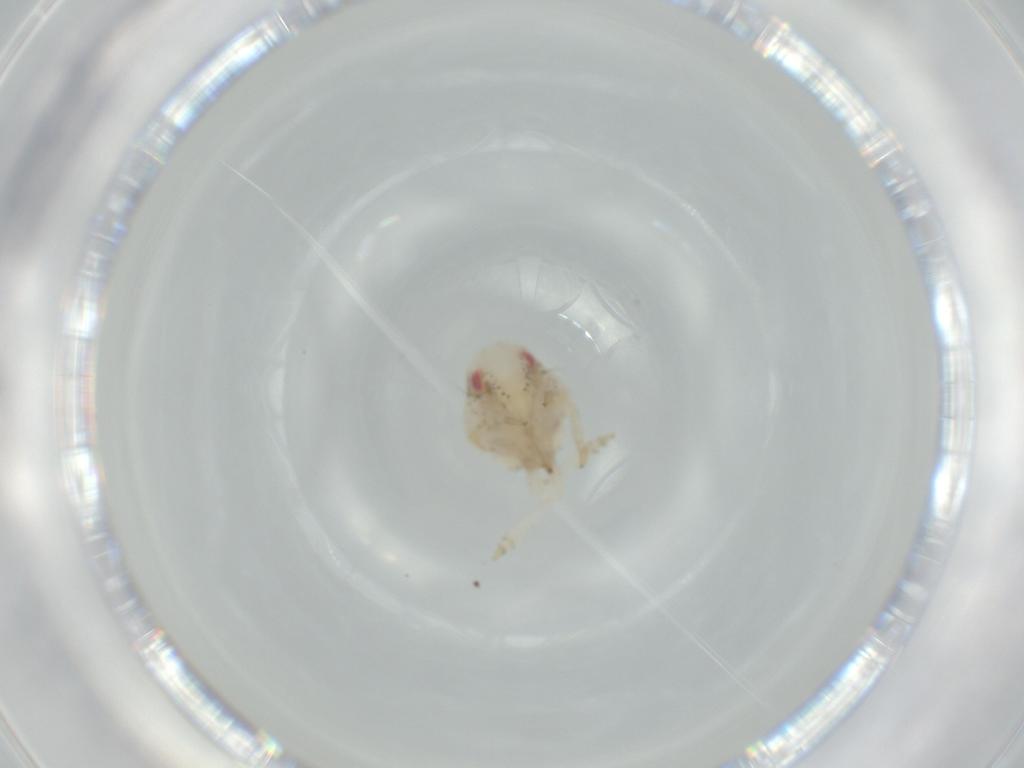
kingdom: Animalia
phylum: Arthropoda
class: Insecta
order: Hemiptera
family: Acanaloniidae
